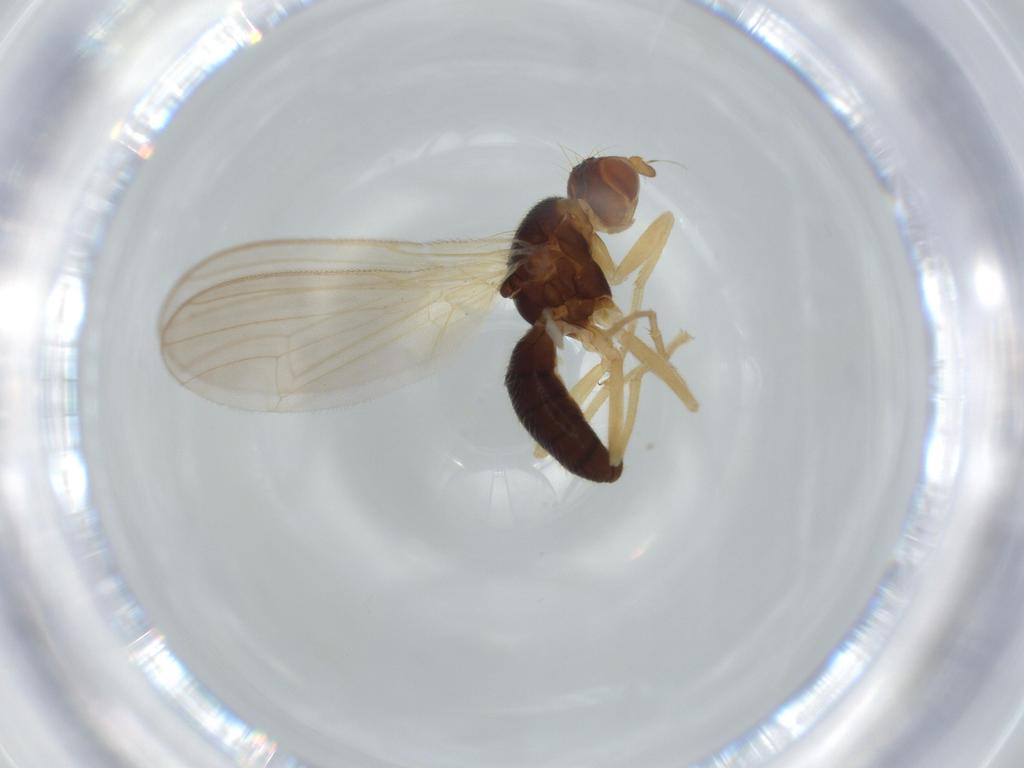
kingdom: Animalia
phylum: Arthropoda
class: Insecta
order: Diptera
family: Psilidae
